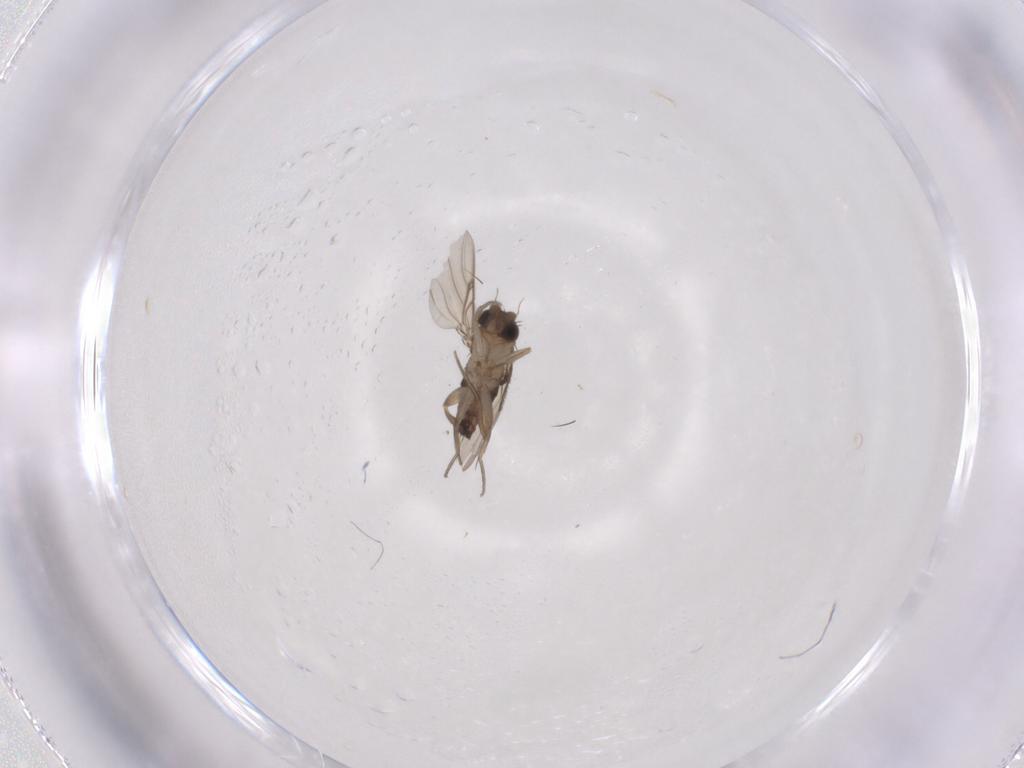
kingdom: Animalia
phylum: Arthropoda
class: Insecta
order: Diptera
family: Phoridae
